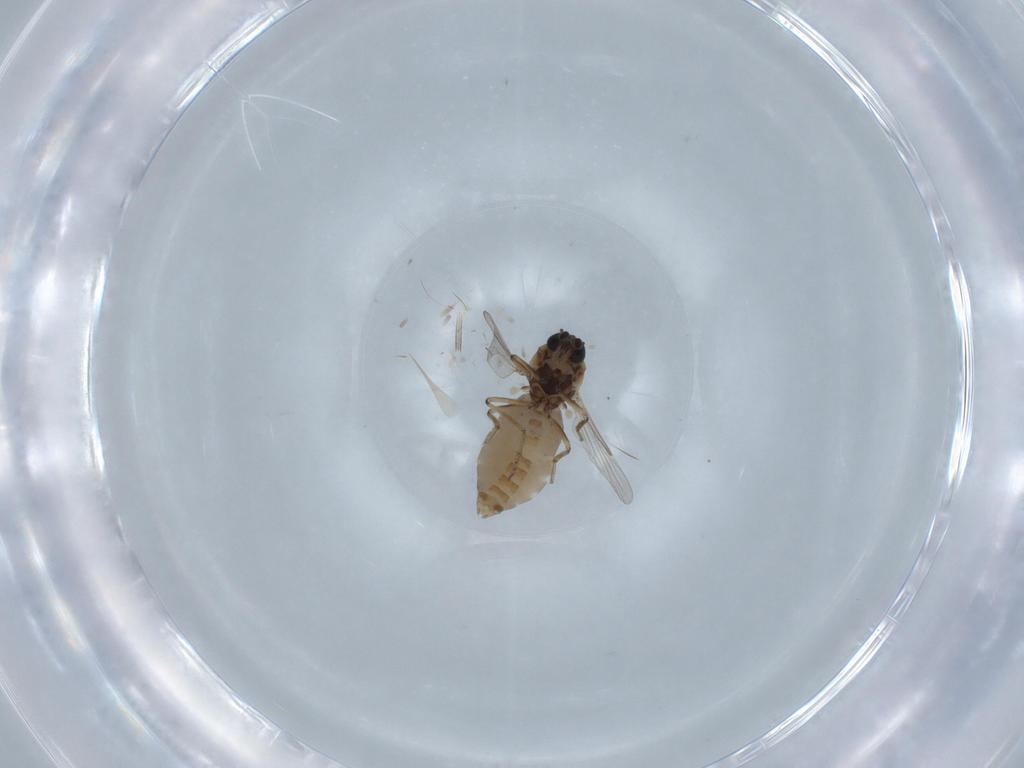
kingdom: Animalia
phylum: Arthropoda
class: Insecta
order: Diptera
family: Ceratopogonidae
